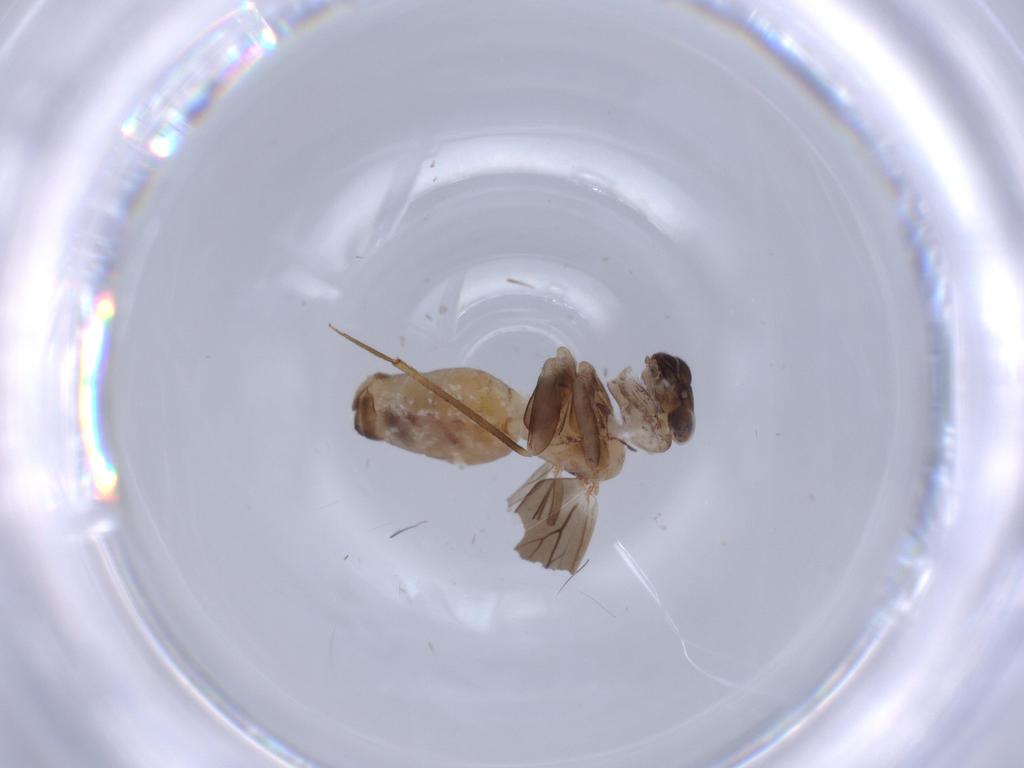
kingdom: Animalia
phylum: Arthropoda
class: Insecta
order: Psocodea
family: Lepidopsocidae
